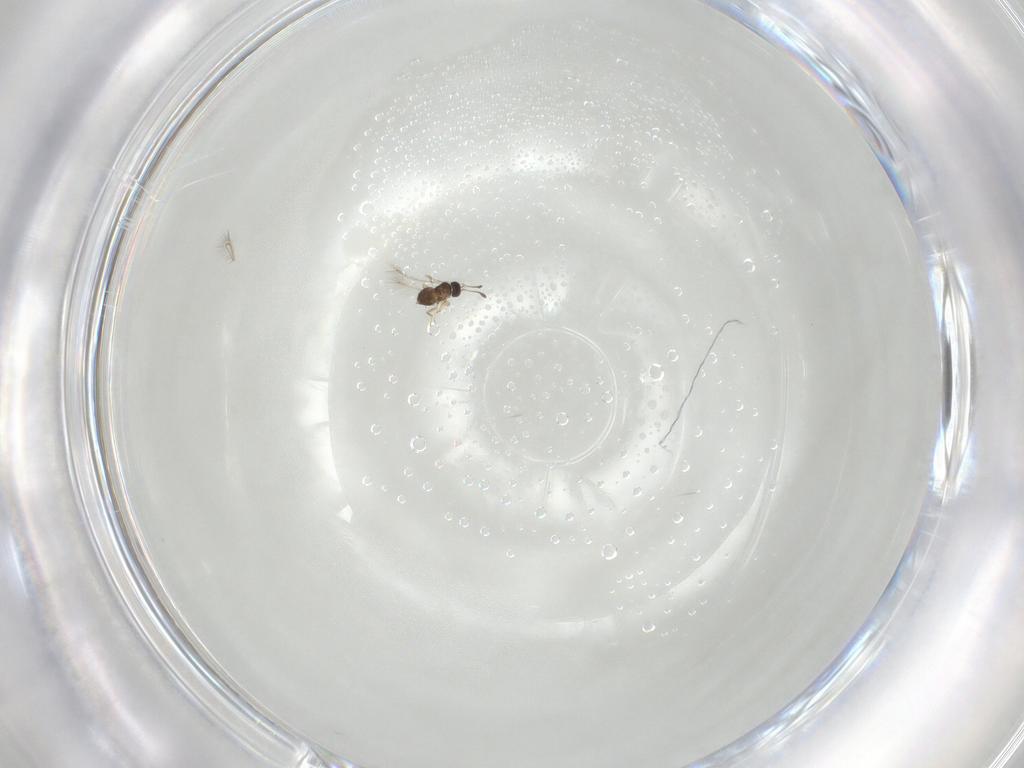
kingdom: Animalia
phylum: Arthropoda
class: Insecta
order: Diptera
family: Sciaridae
